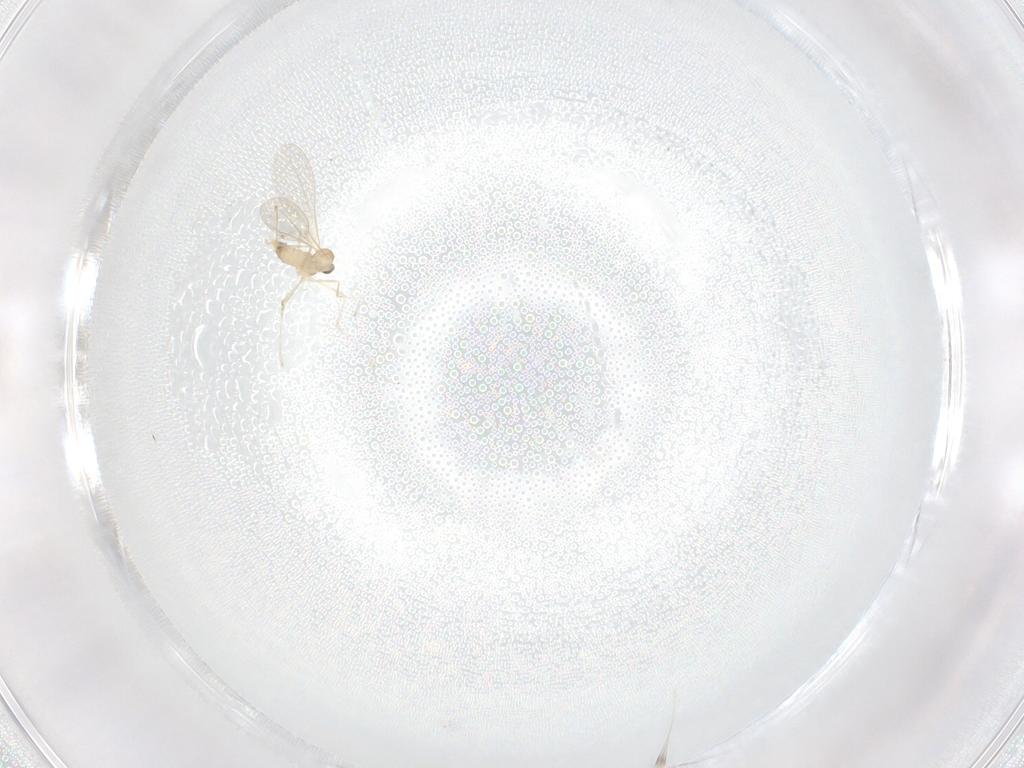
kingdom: Animalia
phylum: Arthropoda
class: Insecta
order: Diptera
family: Cecidomyiidae
